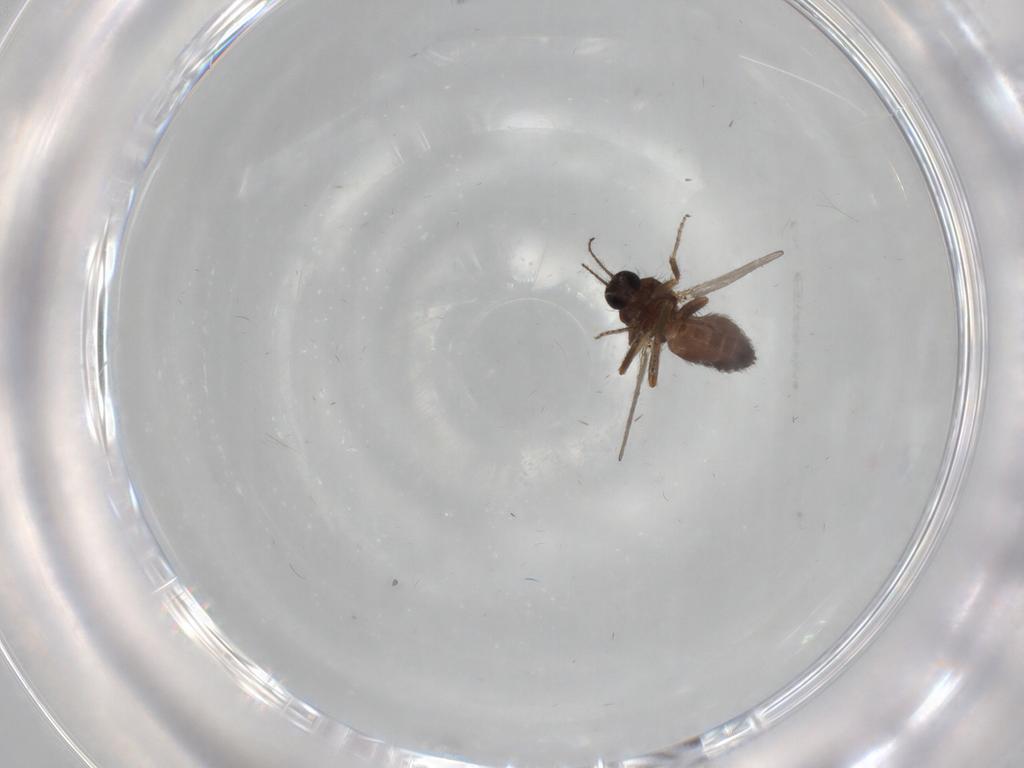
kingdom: Animalia
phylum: Arthropoda
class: Insecta
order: Diptera
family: Ceratopogonidae
